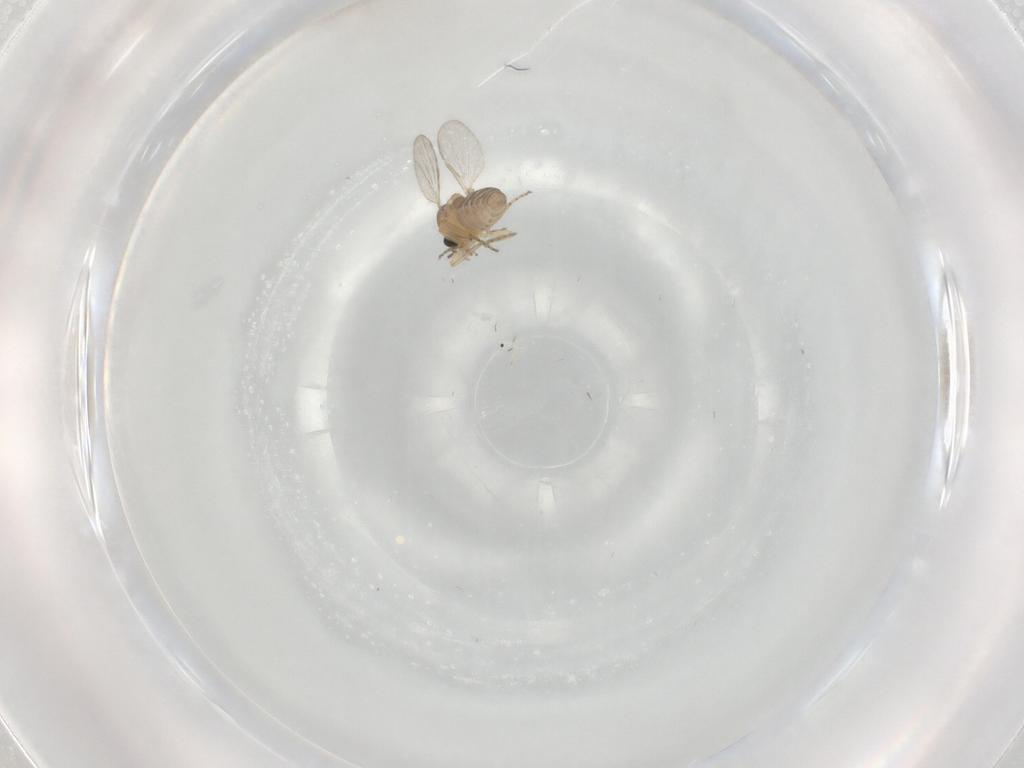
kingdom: Animalia
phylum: Arthropoda
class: Insecta
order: Diptera
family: Ceratopogonidae
